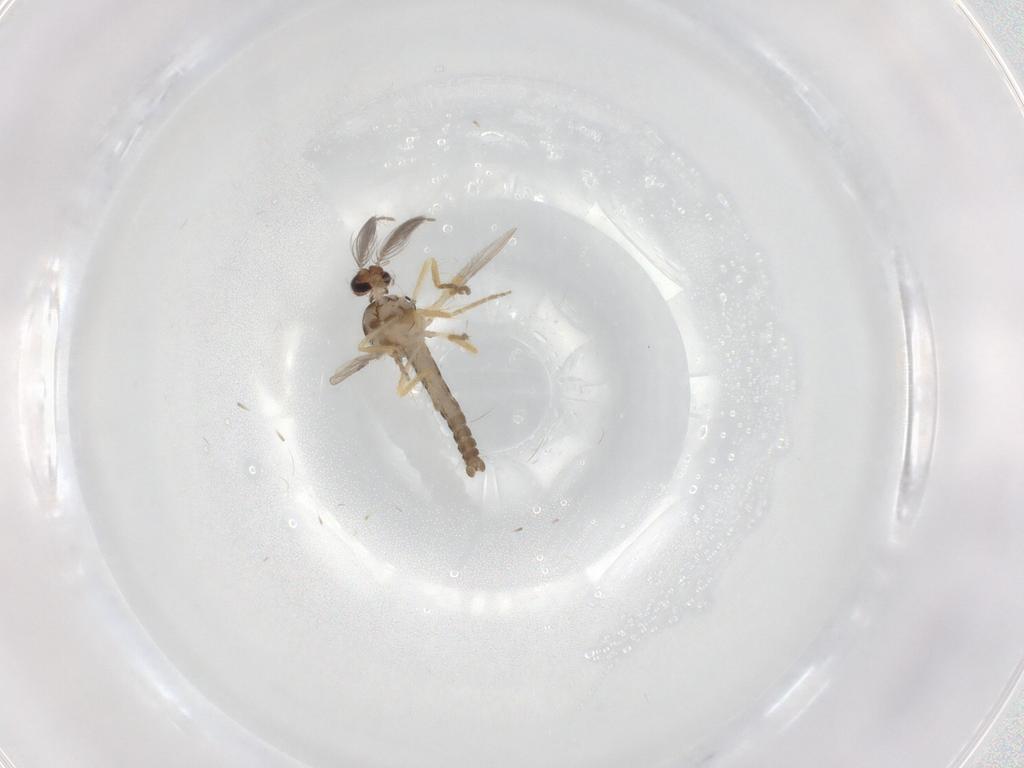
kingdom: Animalia
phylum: Arthropoda
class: Insecta
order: Diptera
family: Ceratopogonidae
